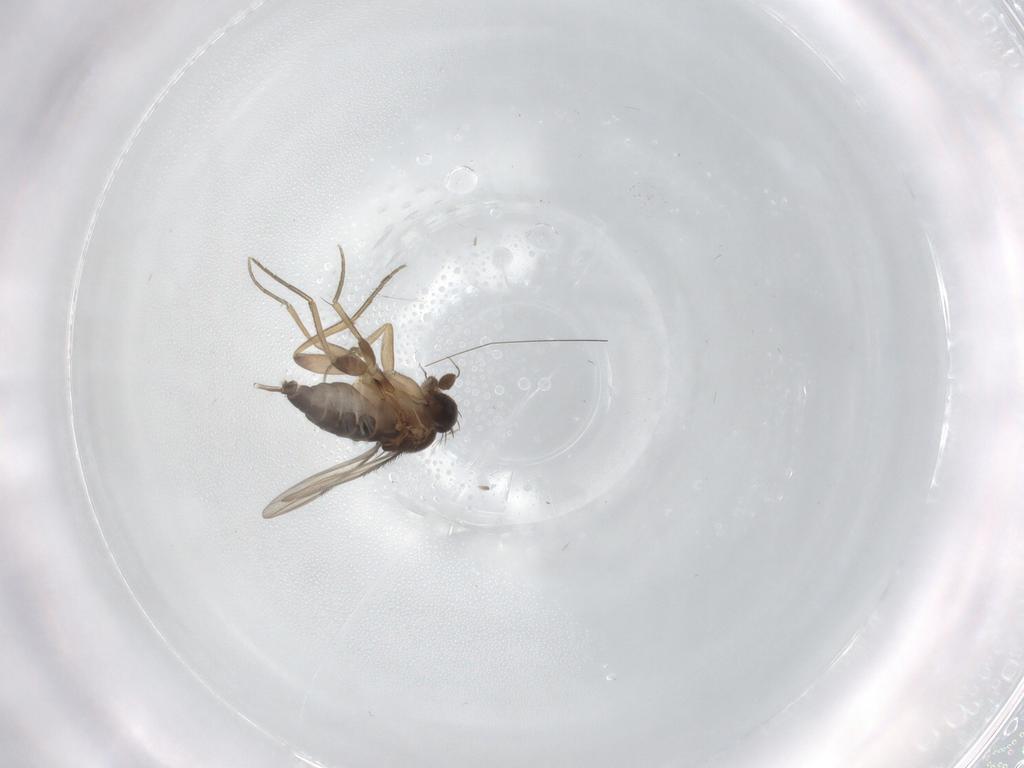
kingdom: Animalia
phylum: Arthropoda
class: Insecta
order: Diptera
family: Phoridae
